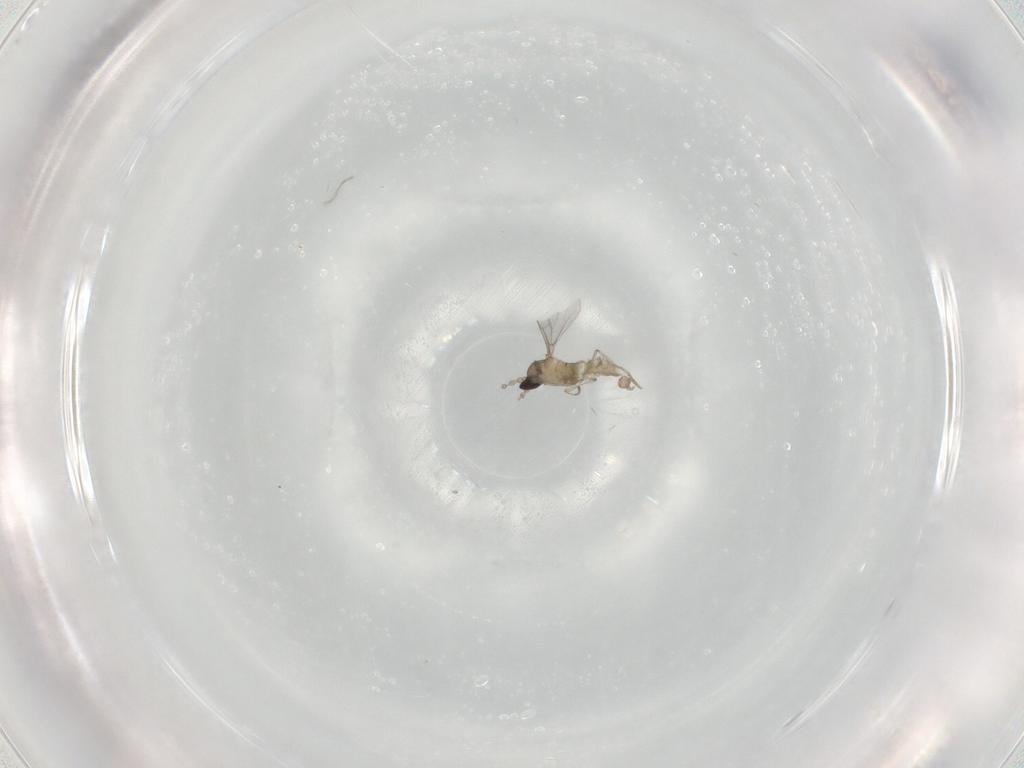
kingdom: Animalia
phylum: Arthropoda
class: Insecta
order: Diptera
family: Cecidomyiidae
